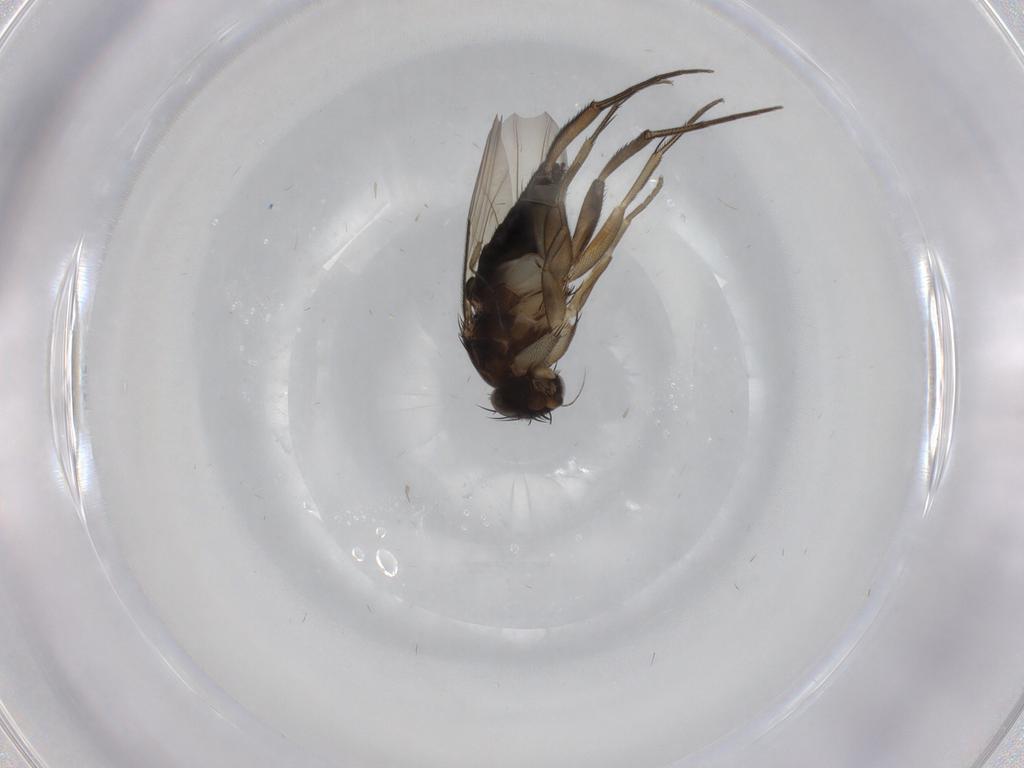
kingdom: Animalia
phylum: Arthropoda
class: Insecta
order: Diptera
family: Phoridae
